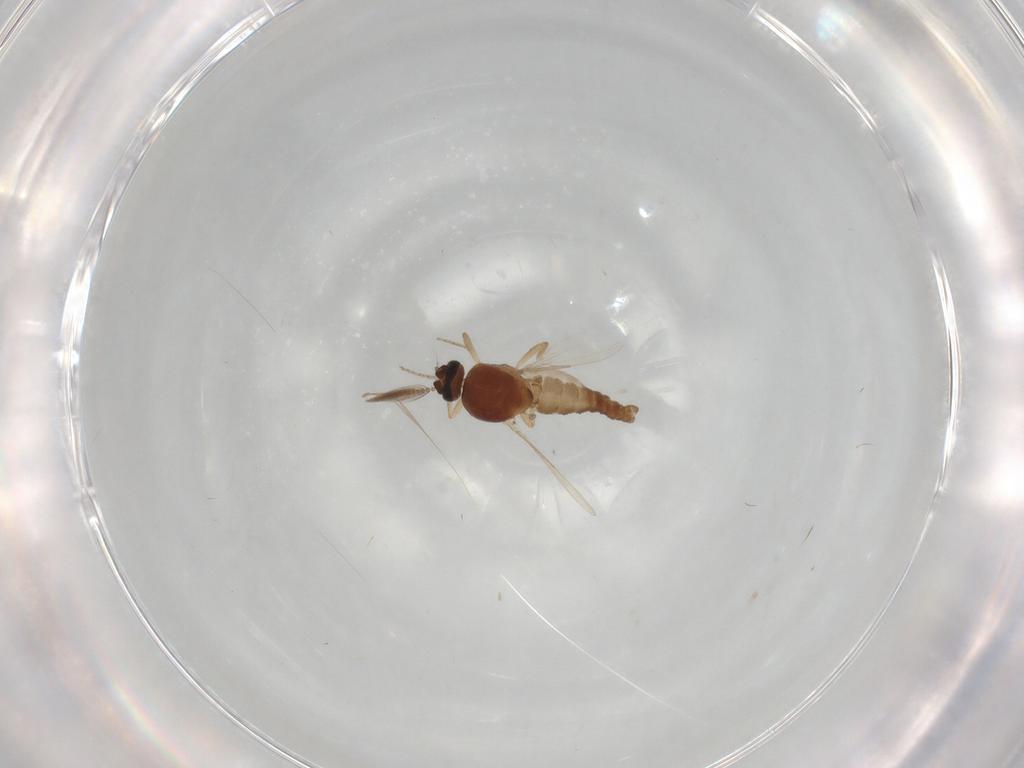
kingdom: Animalia
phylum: Arthropoda
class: Insecta
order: Diptera
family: Ceratopogonidae
